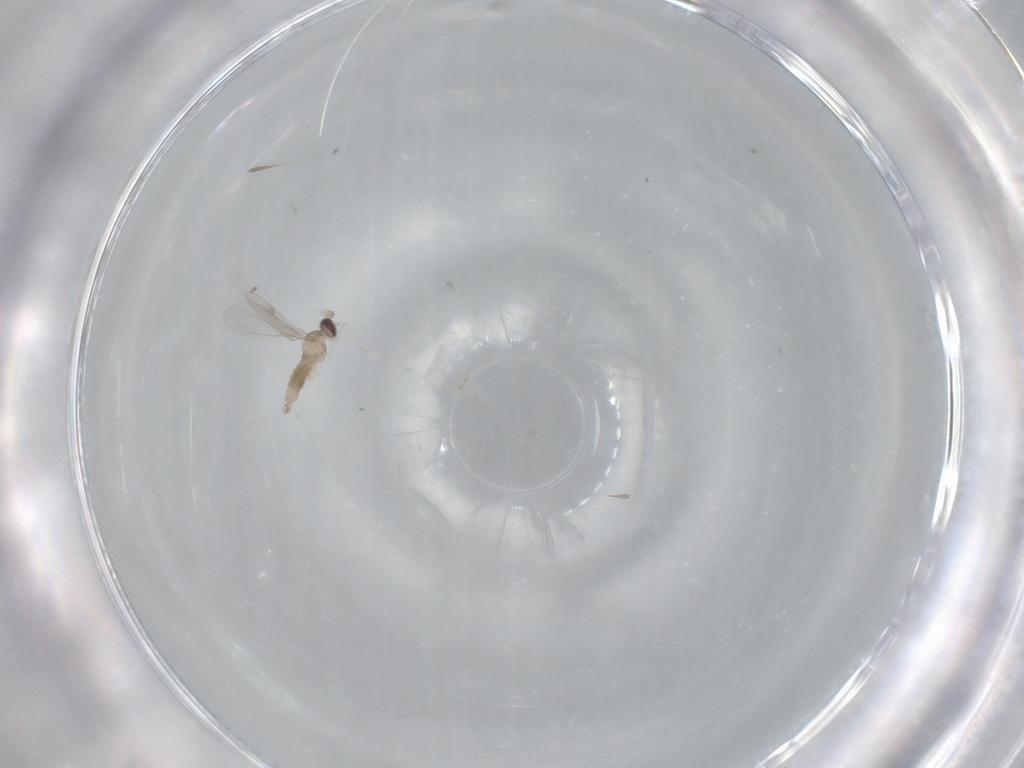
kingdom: Animalia
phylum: Arthropoda
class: Insecta
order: Diptera
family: Cecidomyiidae
